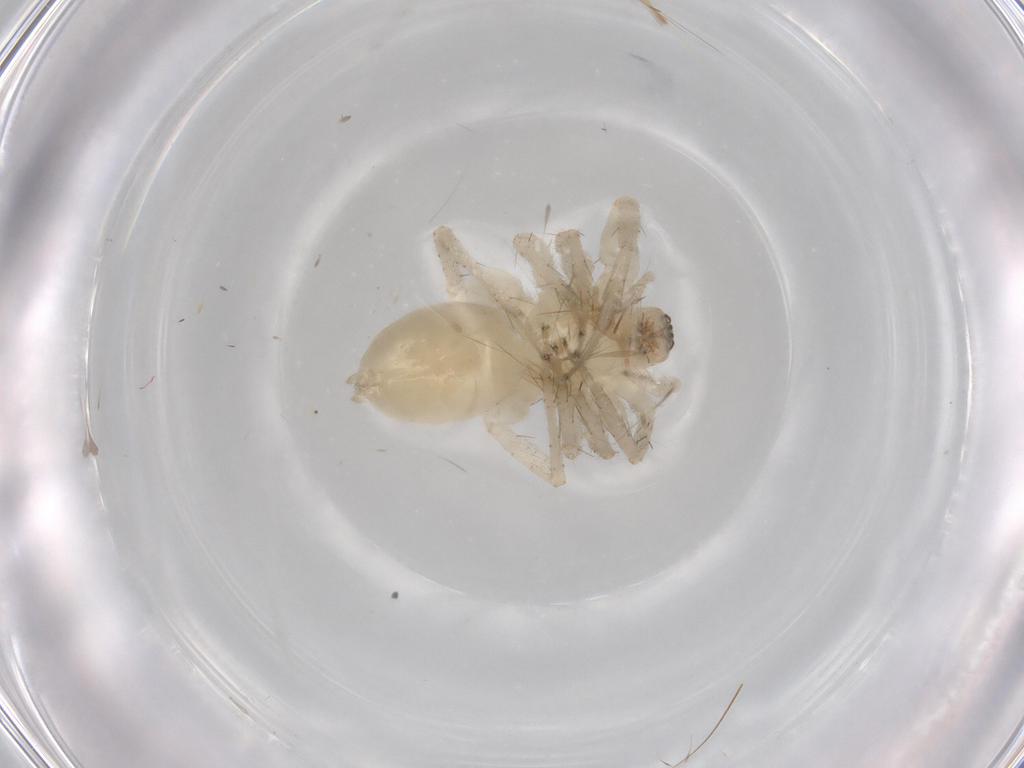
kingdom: Animalia
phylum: Arthropoda
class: Arachnida
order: Araneae
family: Anyphaenidae
